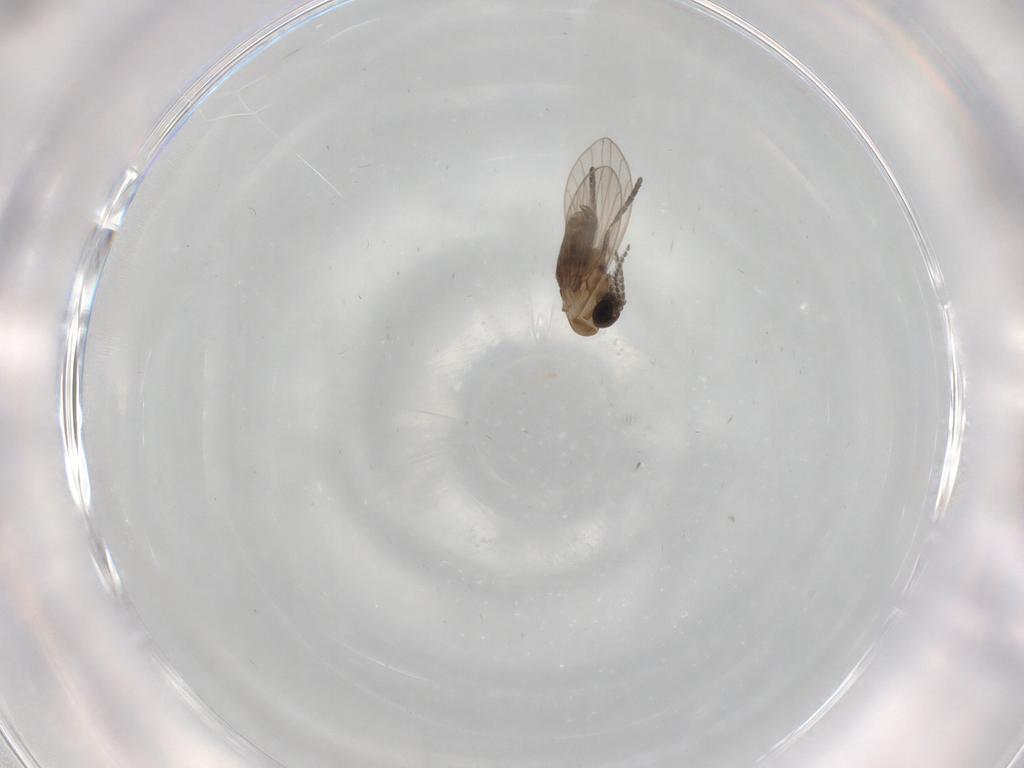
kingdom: Animalia
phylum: Arthropoda
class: Insecta
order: Diptera
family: Psychodidae
